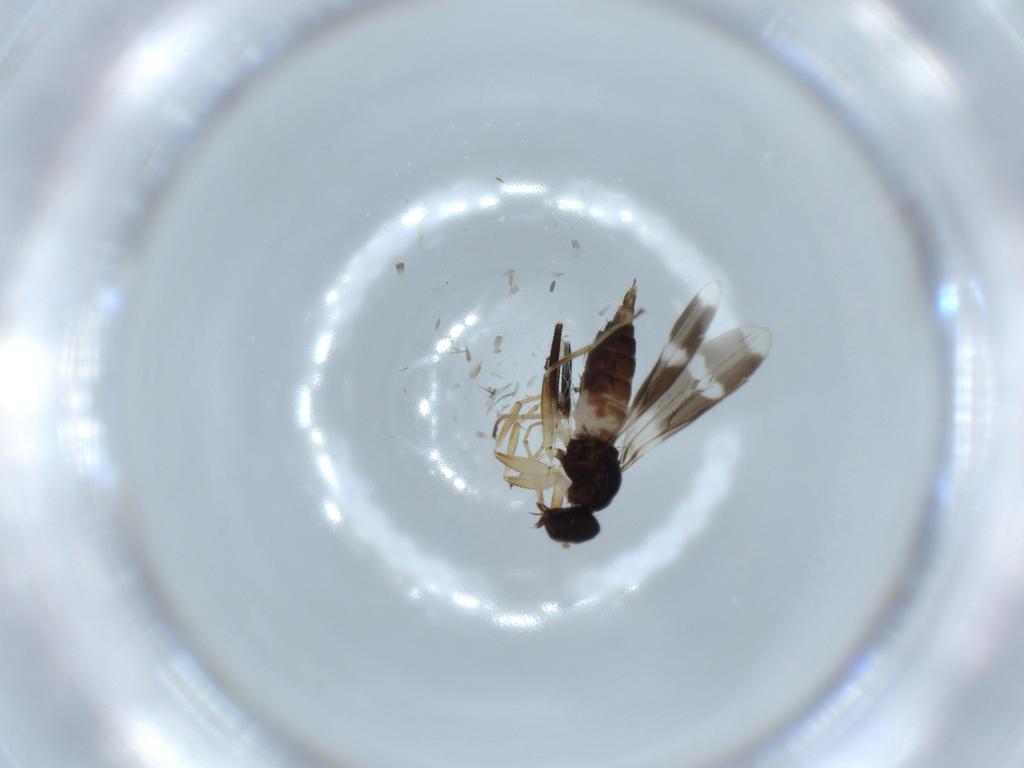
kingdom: Animalia
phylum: Arthropoda
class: Insecta
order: Diptera
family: Hybotidae
